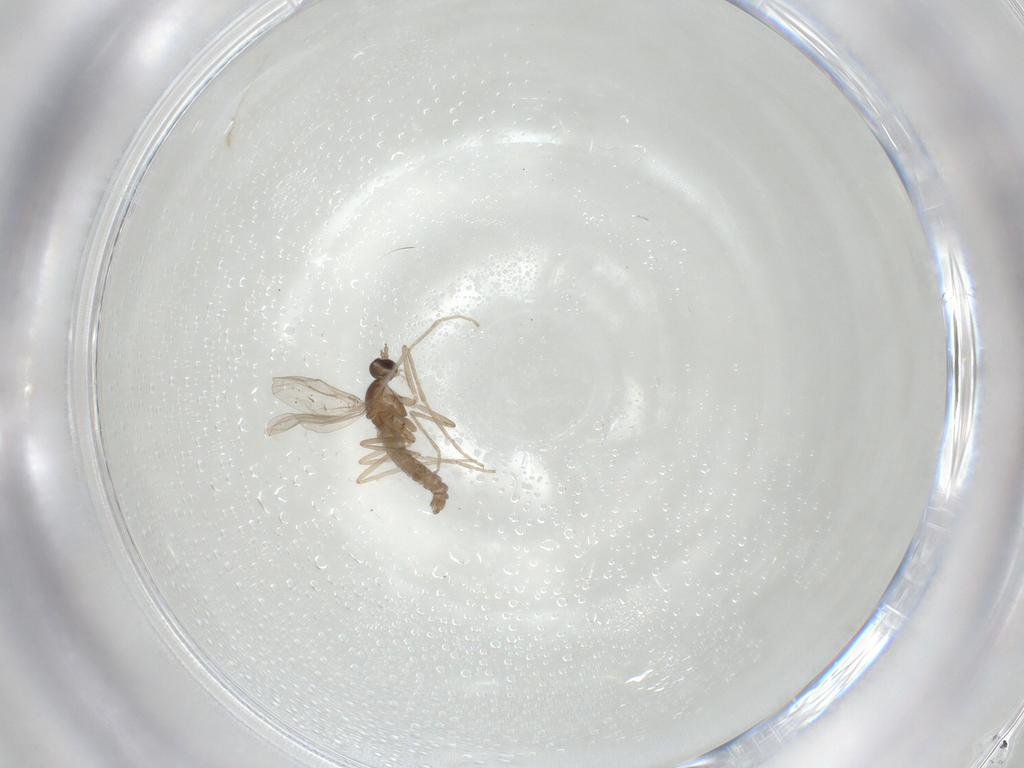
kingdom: Animalia
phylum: Arthropoda
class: Insecta
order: Diptera
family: Cecidomyiidae
